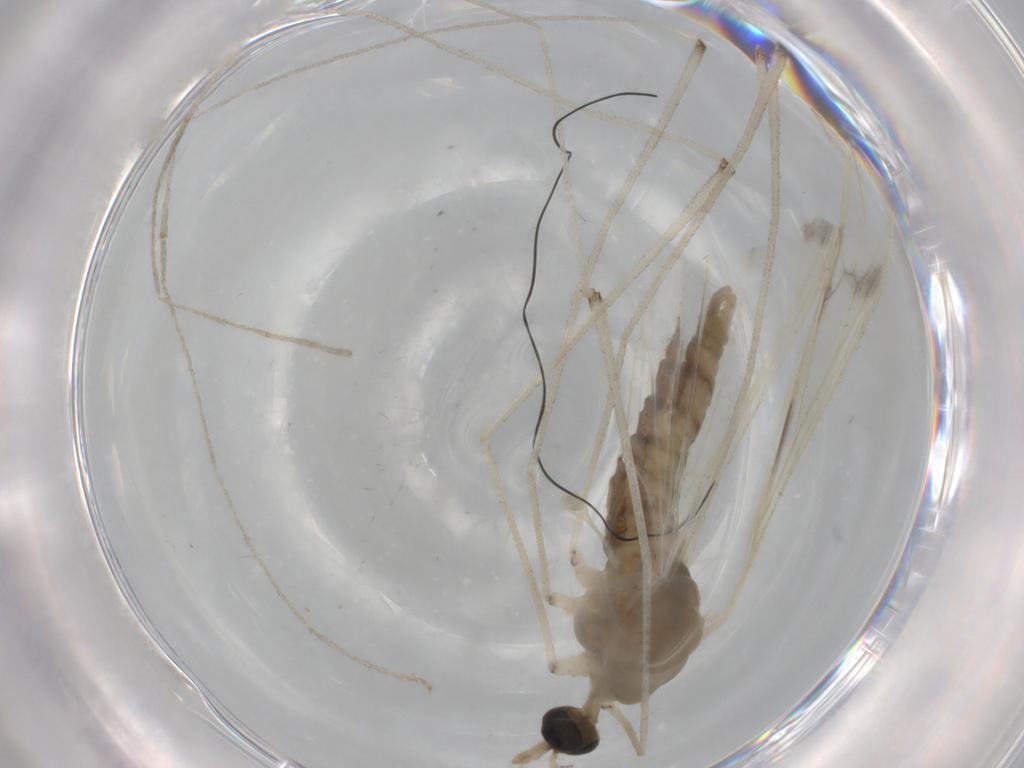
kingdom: Animalia
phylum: Arthropoda
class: Insecta
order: Diptera
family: Limoniidae
